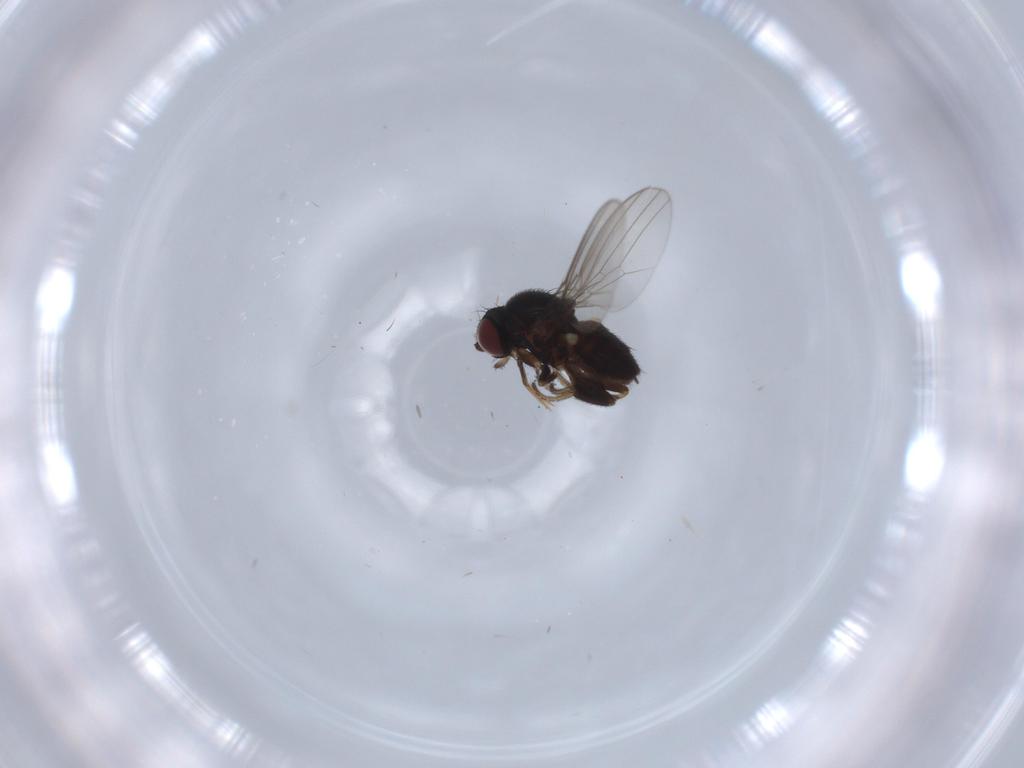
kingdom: Animalia
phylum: Arthropoda
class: Insecta
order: Diptera
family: Milichiidae
